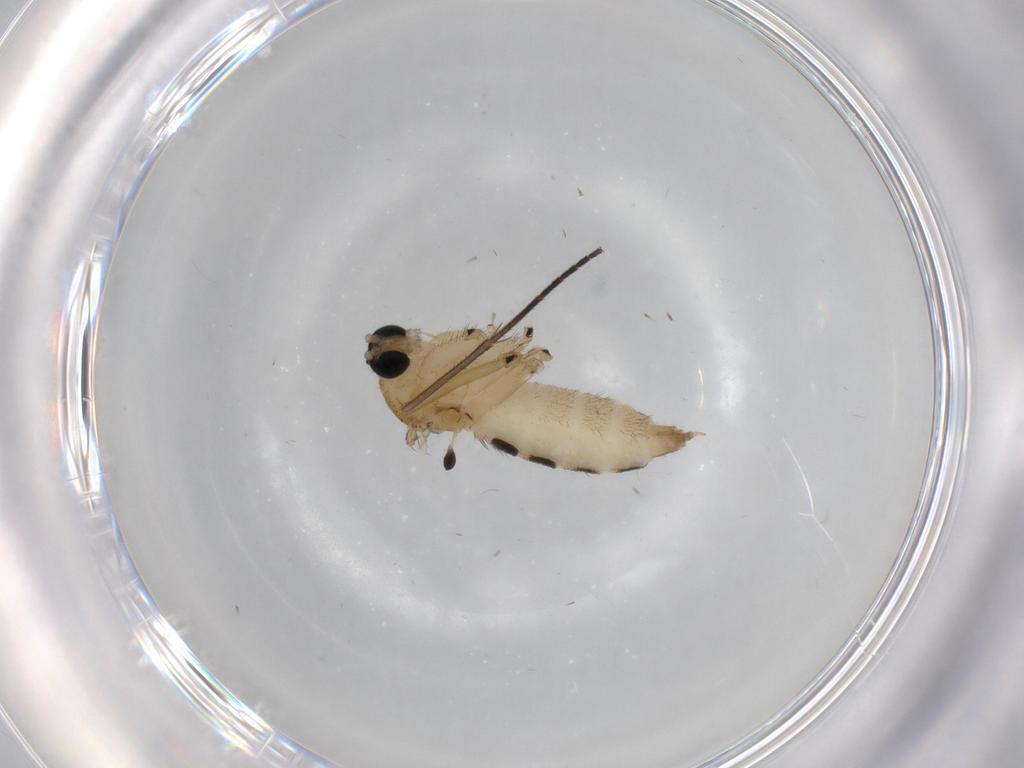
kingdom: Animalia
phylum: Arthropoda
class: Insecta
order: Diptera
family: Sciaridae
